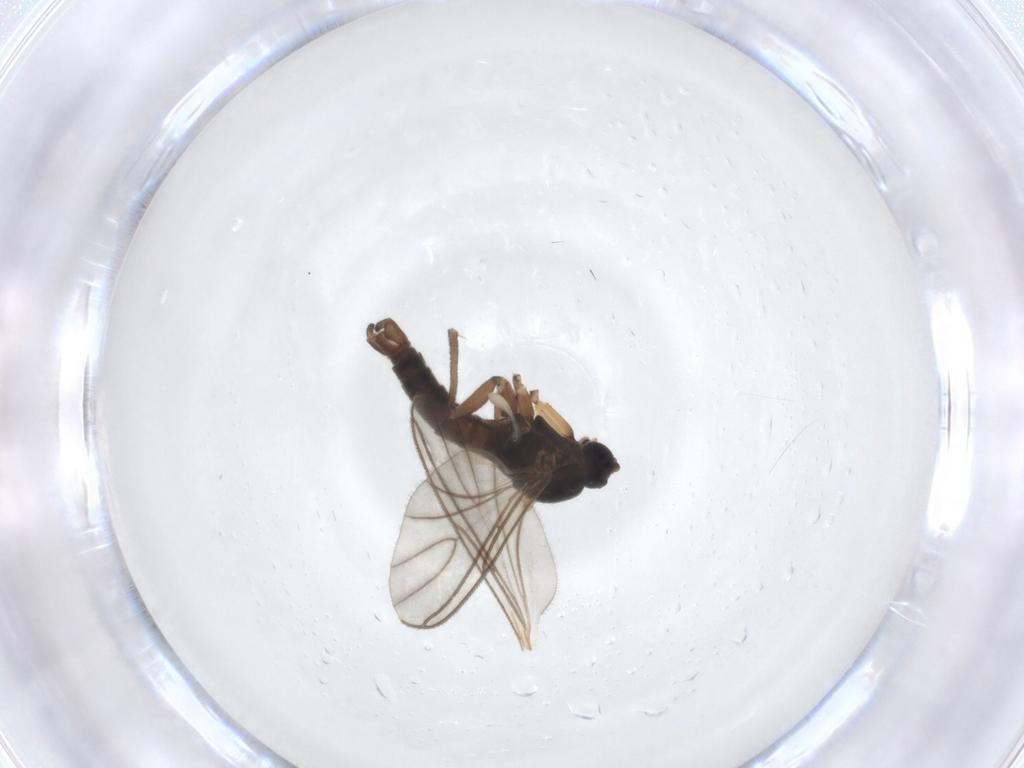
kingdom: Animalia
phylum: Arthropoda
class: Insecta
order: Diptera
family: Sciaridae
